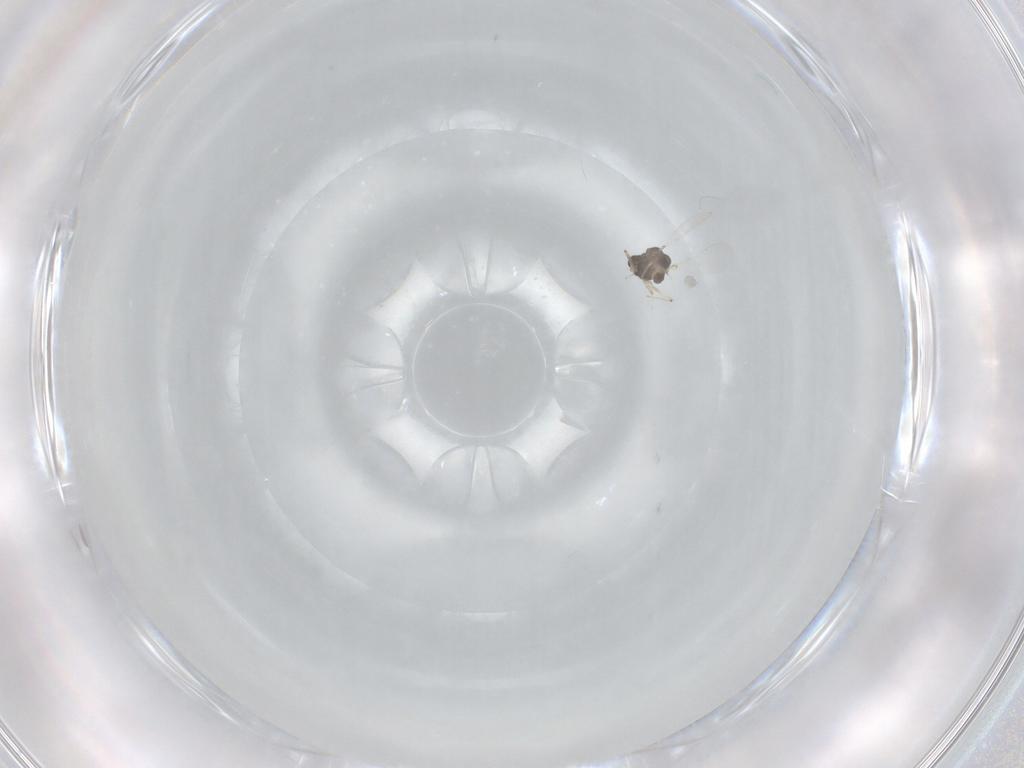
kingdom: Animalia
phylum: Arthropoda
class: Insecta
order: Diptera
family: Chironomidae
